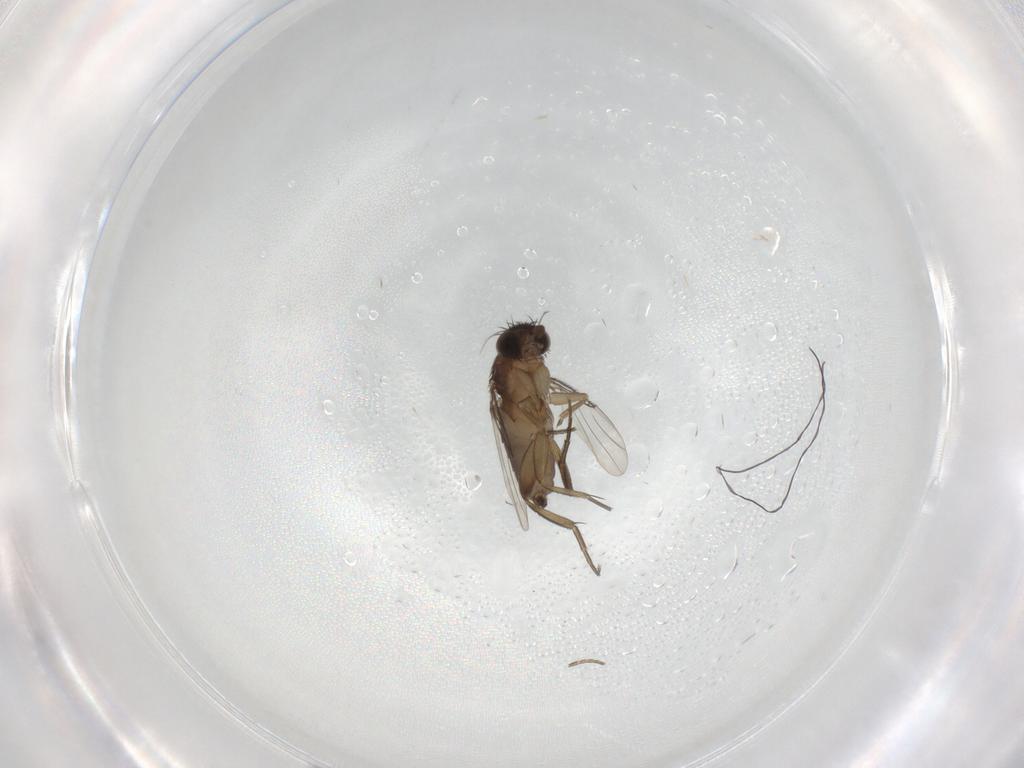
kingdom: Animalia
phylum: Arthropoda
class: Insecta
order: Diptera
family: Phoridae
